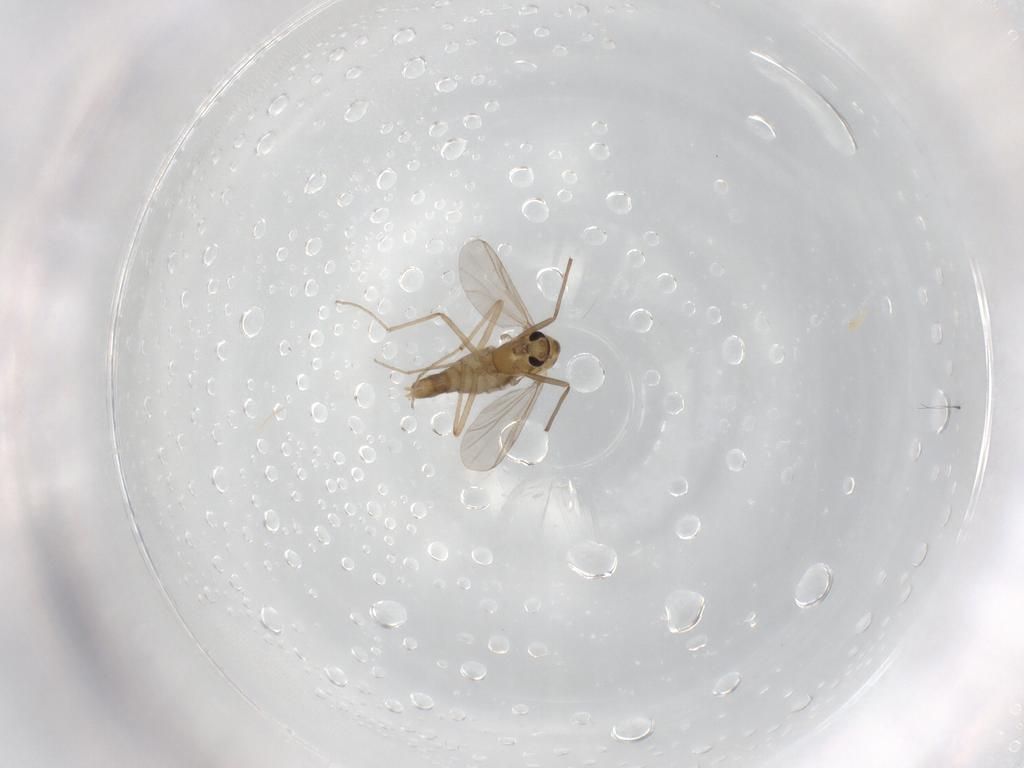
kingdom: Animalia
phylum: Arthropoda
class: Insecta
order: Diptera
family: Chironomidae
